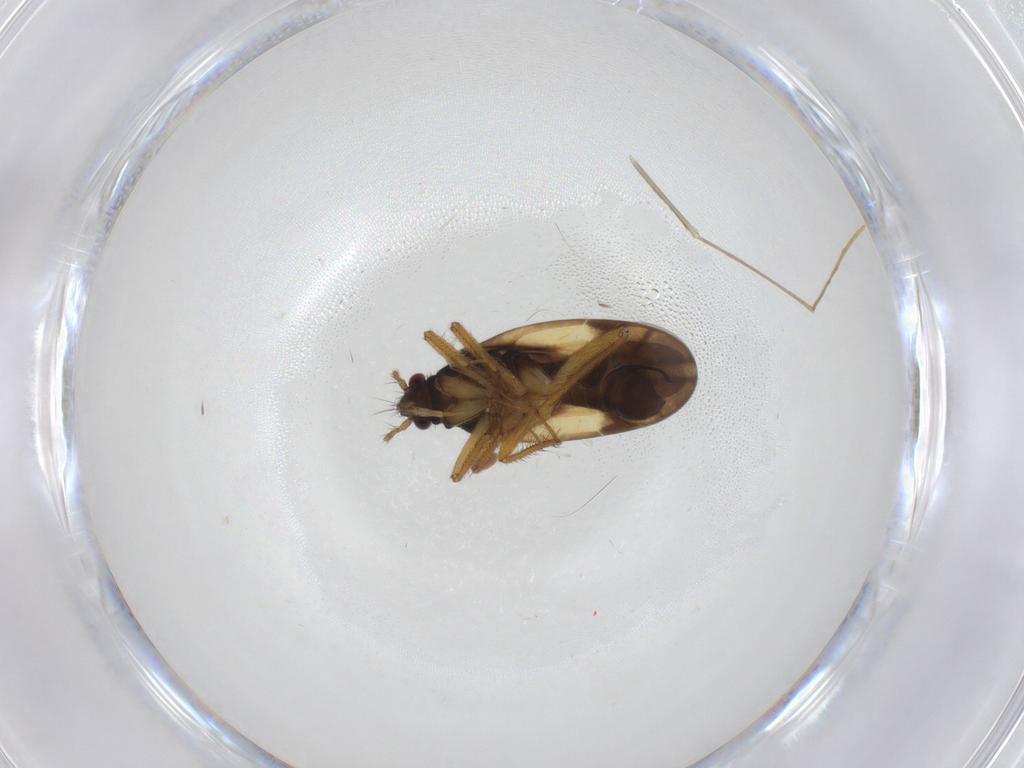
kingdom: Animalia
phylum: Arthropoda
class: Insecta
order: Hemiptera
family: Ceratocombidae
